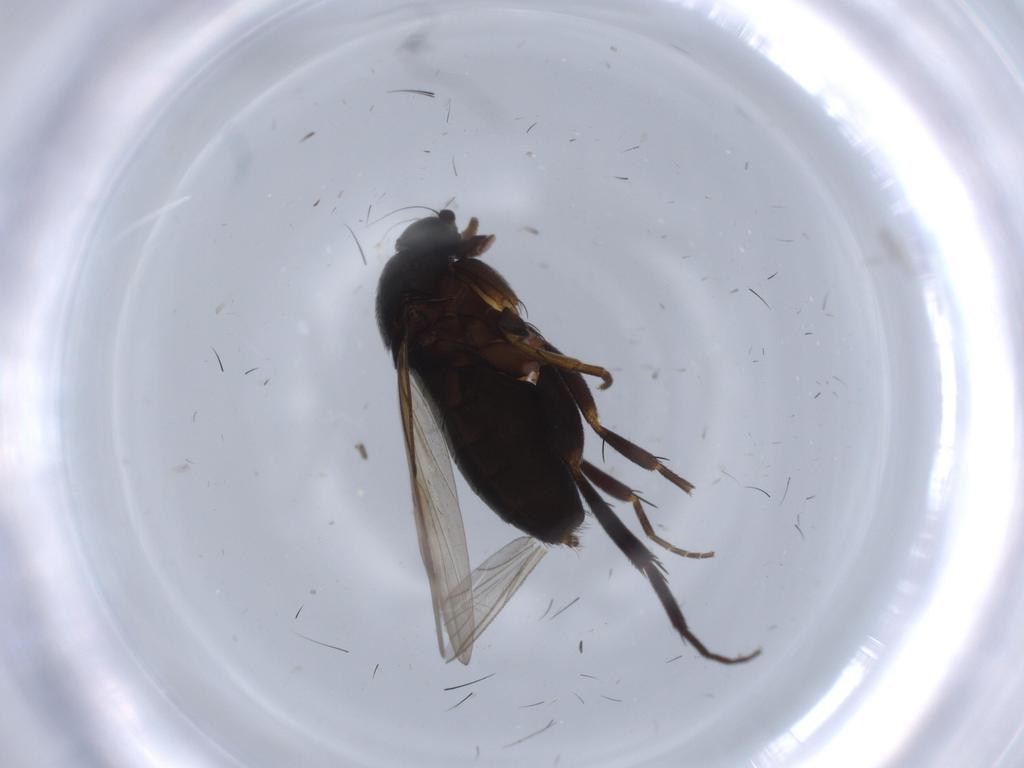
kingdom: Animalia
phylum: Arthropoda
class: Insecta
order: Diptera
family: Phoridae
